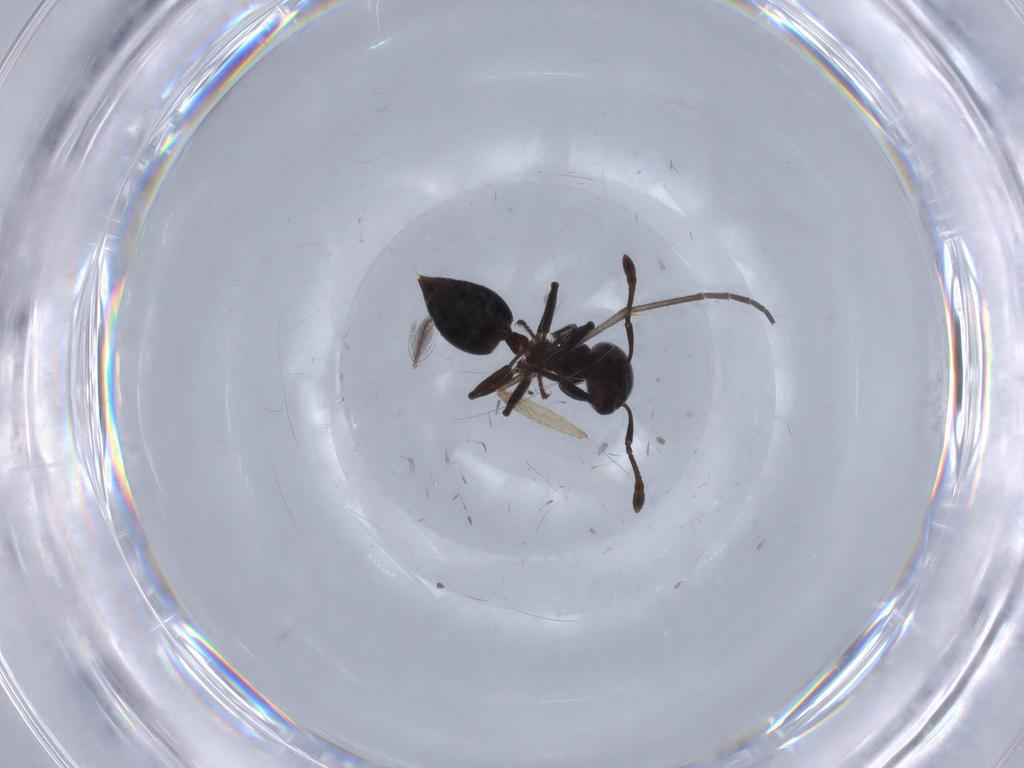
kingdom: Animalia
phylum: Arthropoda
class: Insecta
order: Hymenoptera
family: Formicidae
